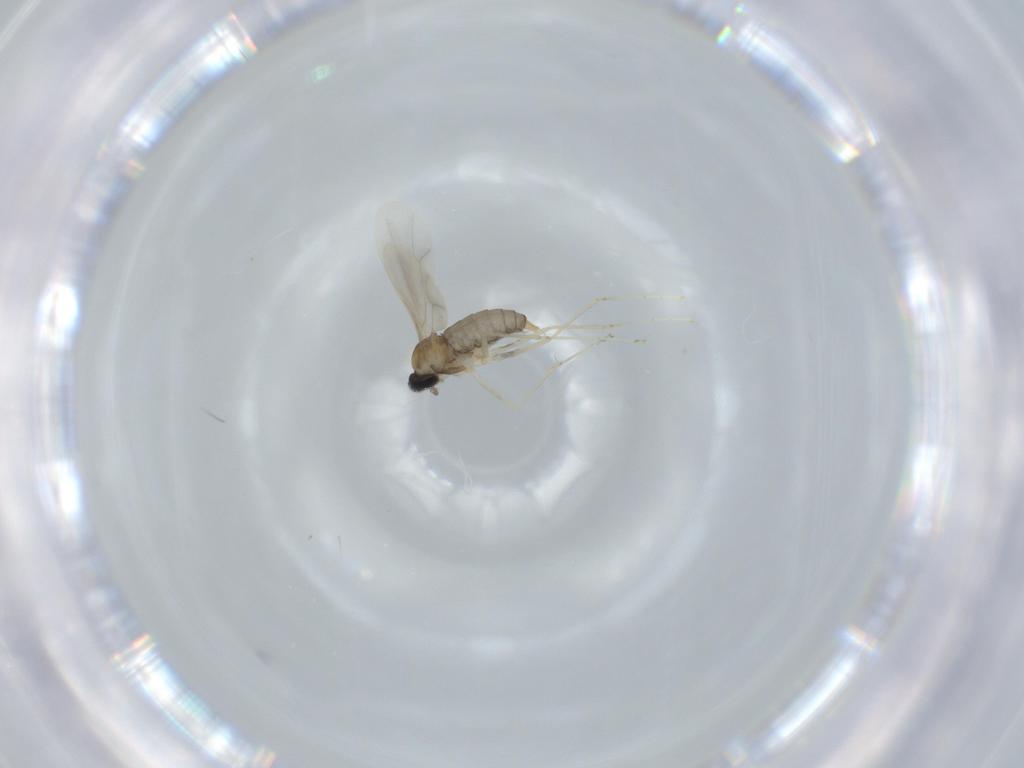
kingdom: Animalia
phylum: Arthropoda
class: Insecta
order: Diptera
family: Cecidomyiidae
